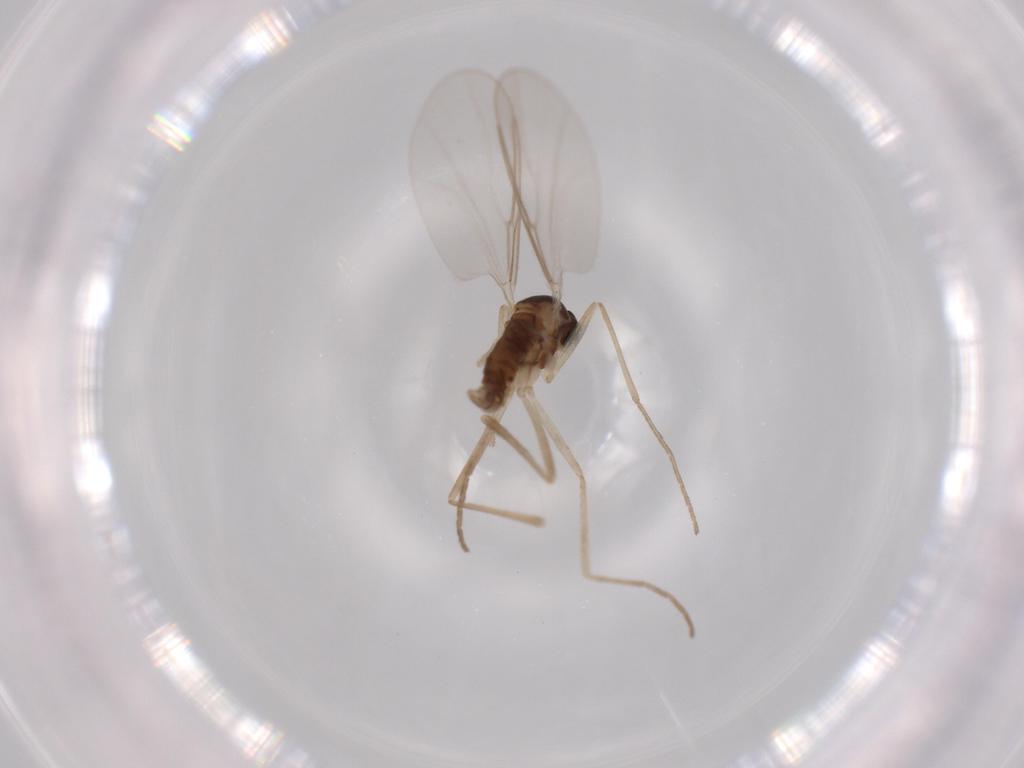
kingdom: Animalia
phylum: Arthropoda
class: Insecta
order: Diptera
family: Cecidomyiidae
